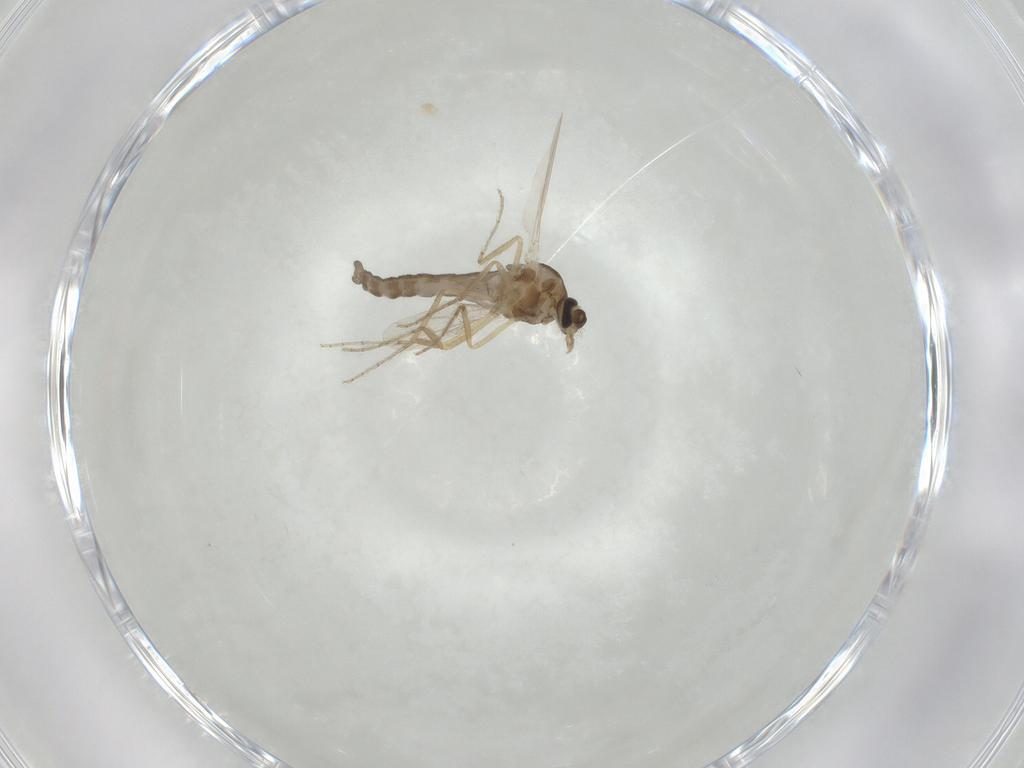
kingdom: Animalia
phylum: Arthropoda
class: Insecta
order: Diptera
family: Ceratopogonidae
